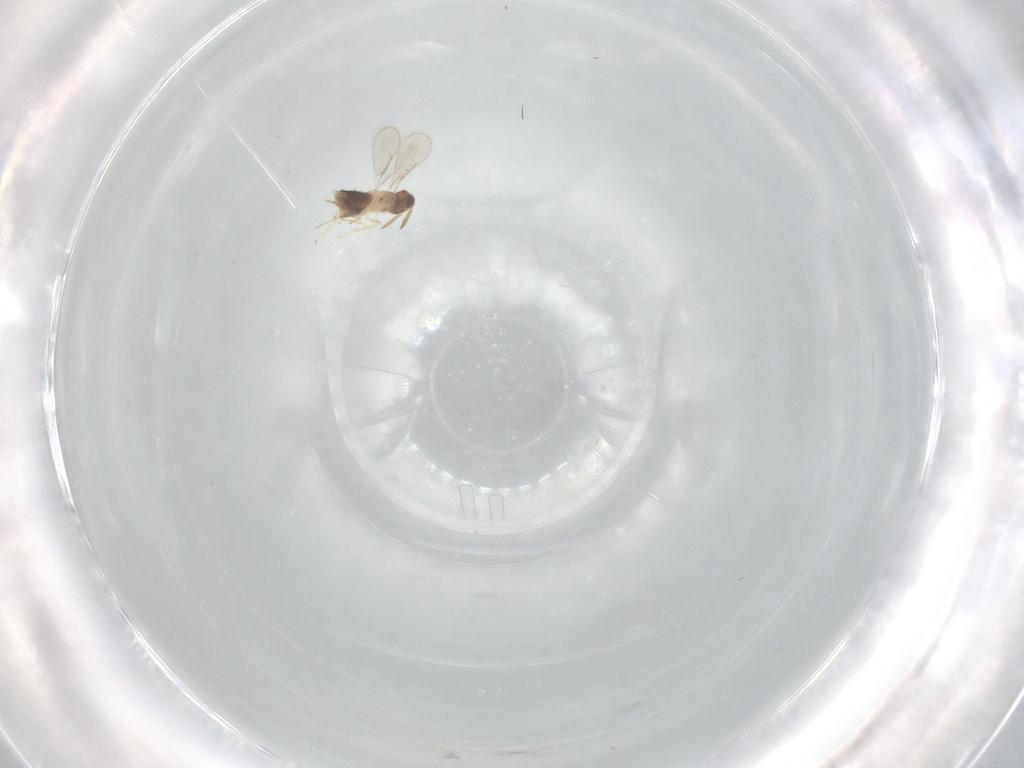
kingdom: Animalia
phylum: Arthropoda
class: Insecta
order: Hymenoptera
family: Aphelinidae
